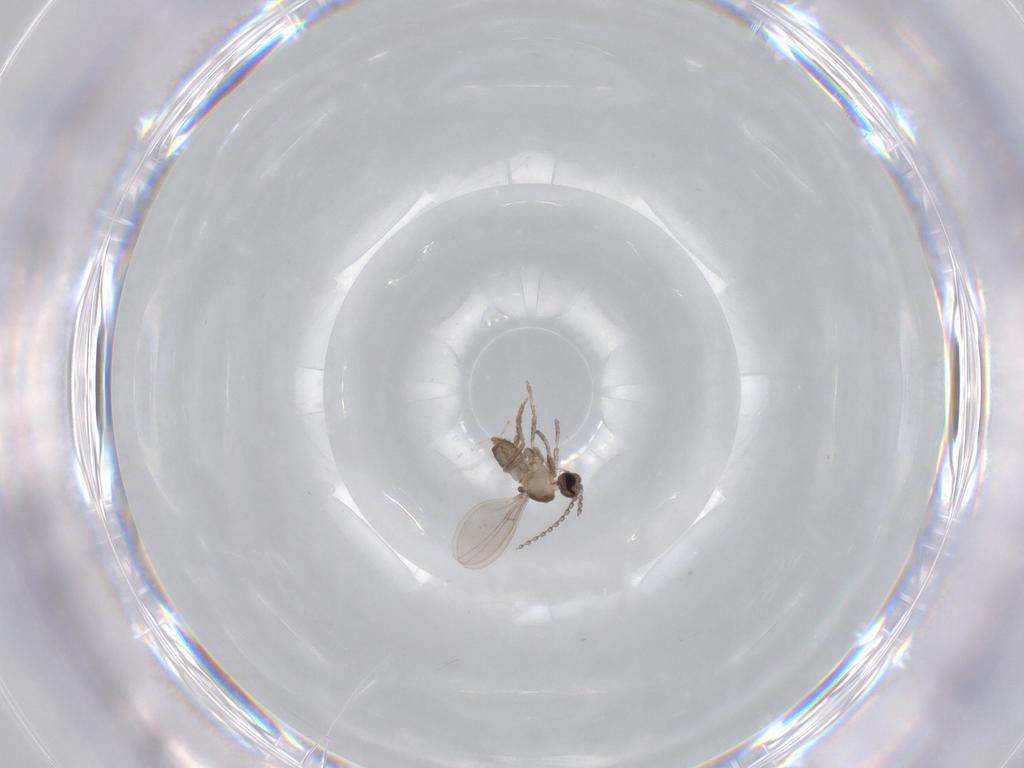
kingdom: Animalia
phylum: Arthropoda
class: Insecta
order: Diptera
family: Cecidomyiidae
